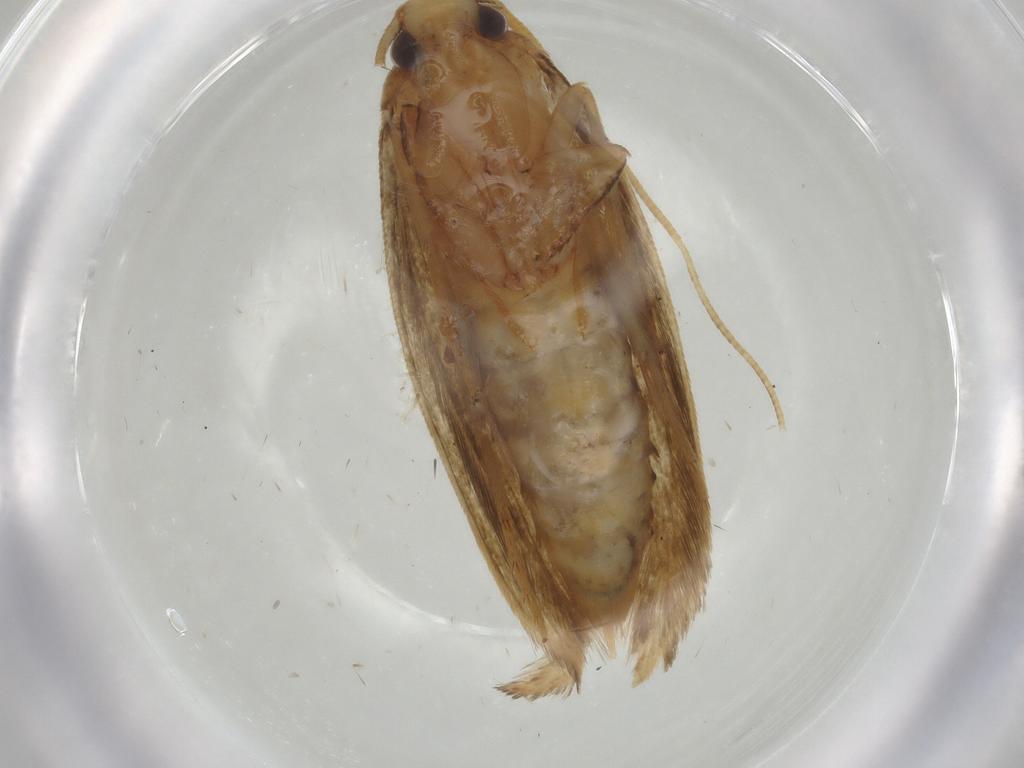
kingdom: Animalia
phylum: Arthropoda
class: Insecta
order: Lepidoptera
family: Tineidae
